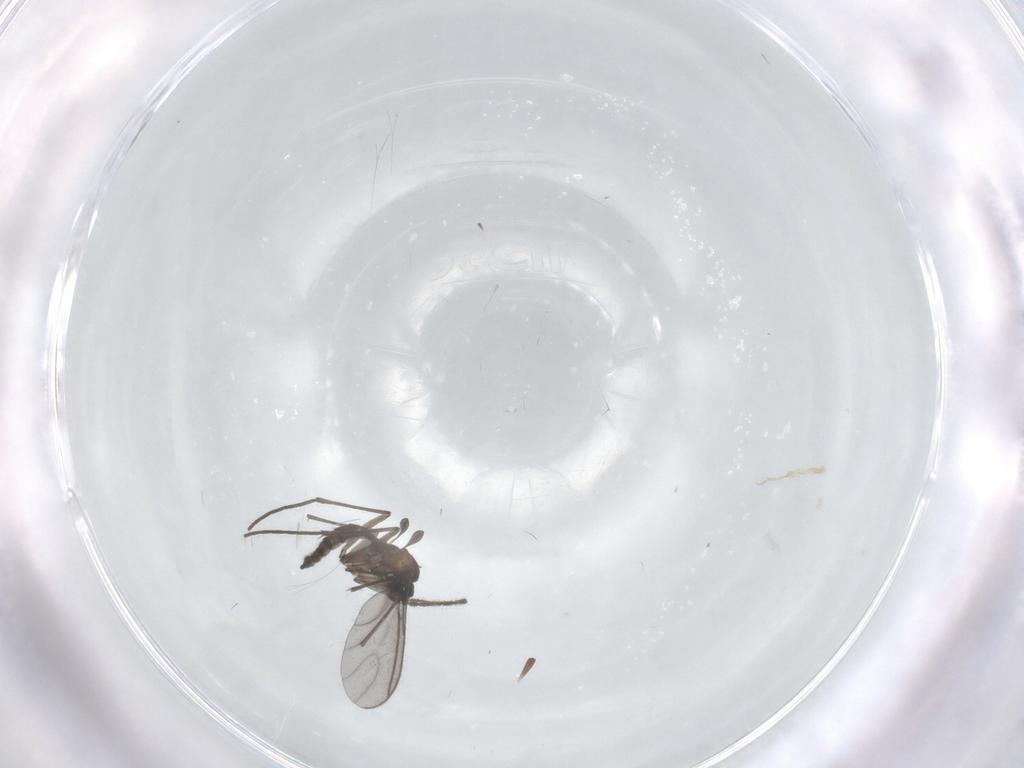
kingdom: Animalia
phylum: Arthropoda
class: Insecta
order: Diptera
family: Sciaridae
